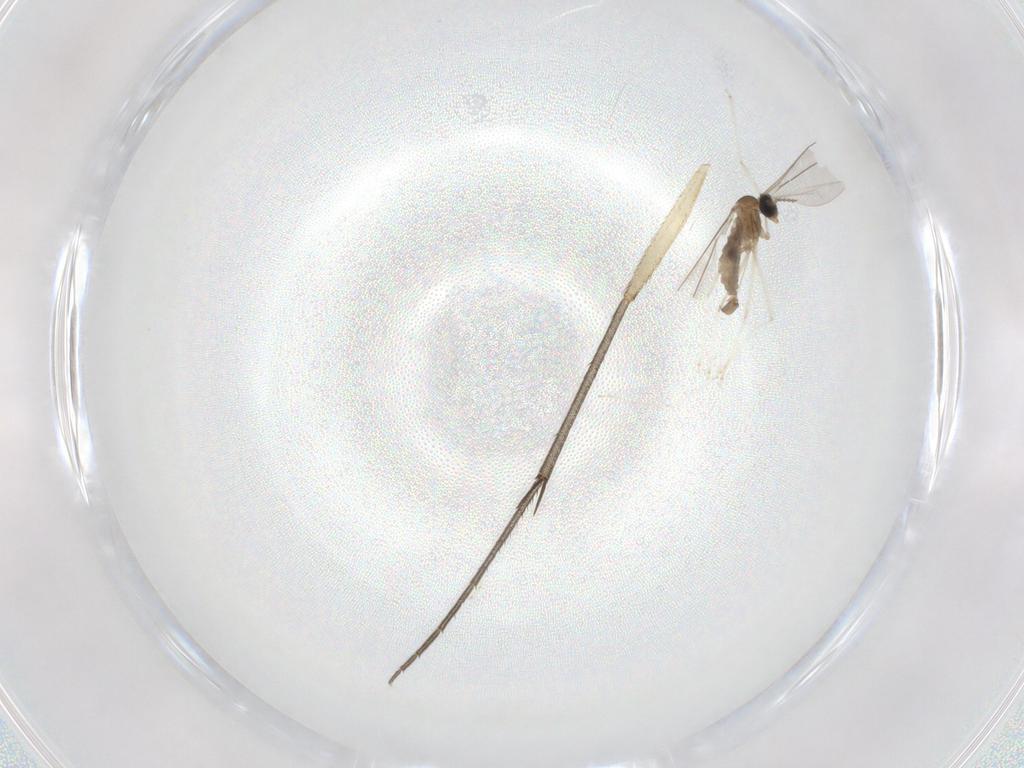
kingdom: Animalia
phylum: Arthropoda
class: Insecta
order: Diptera
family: Mycetophilidae
